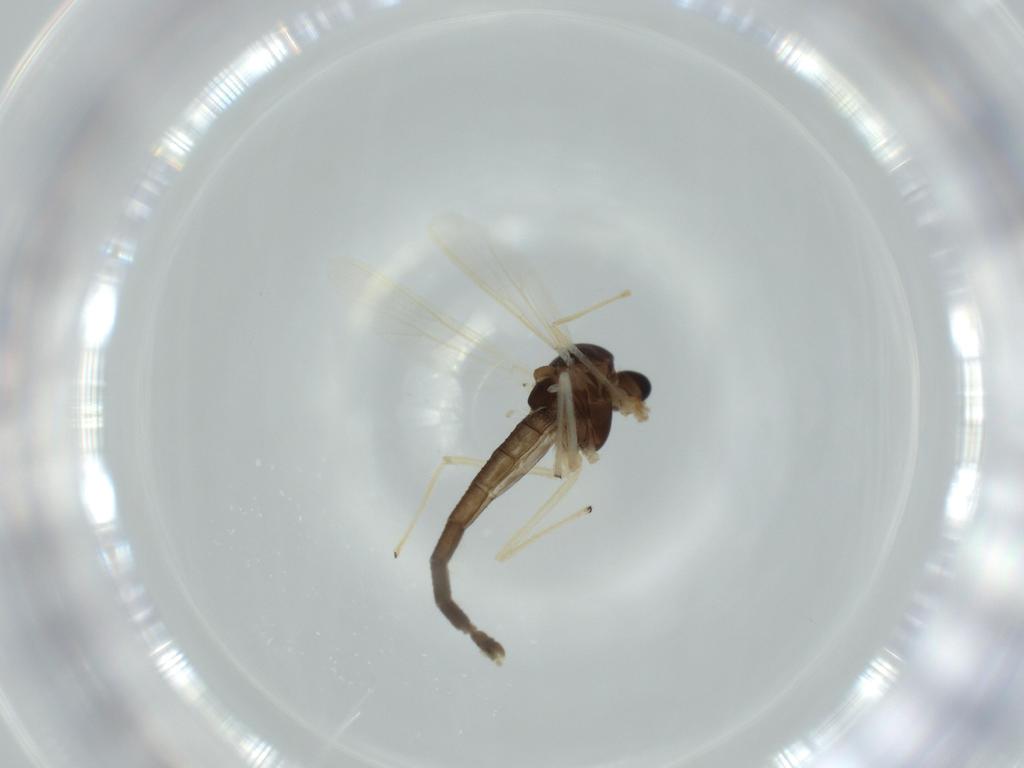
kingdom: Animalia
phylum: Arthropoda
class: Insecta
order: Diptera
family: Chironomidae
